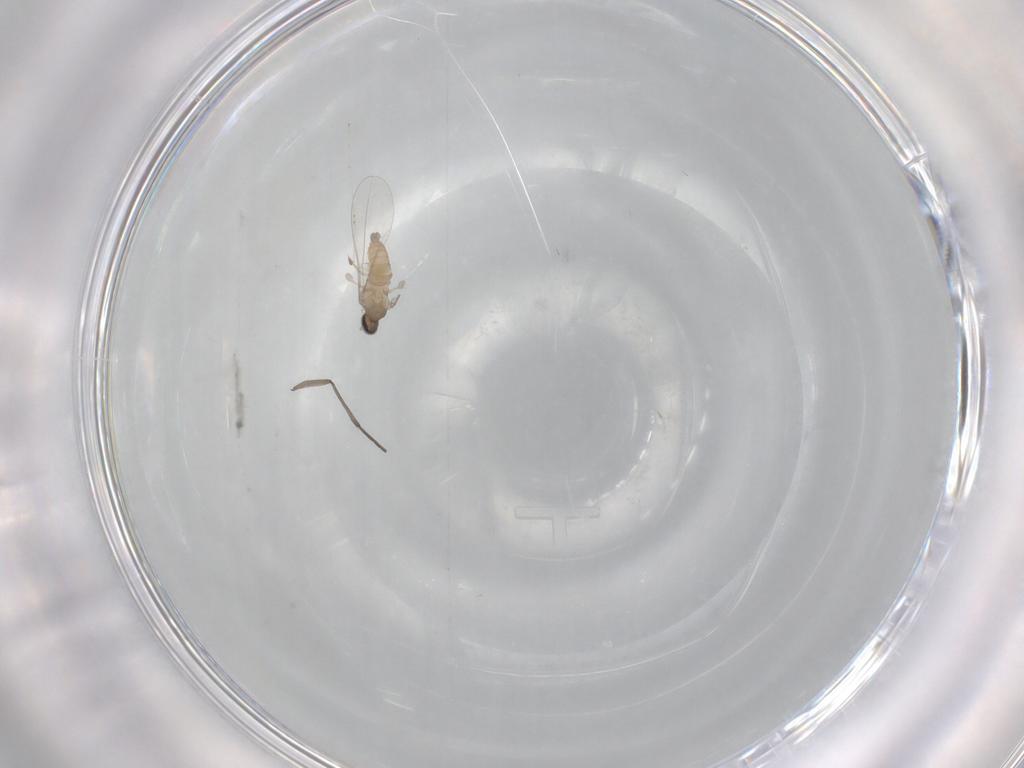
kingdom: Animalia
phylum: Arthropoda
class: Insecta
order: Diptera
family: Cecidomyiidae
